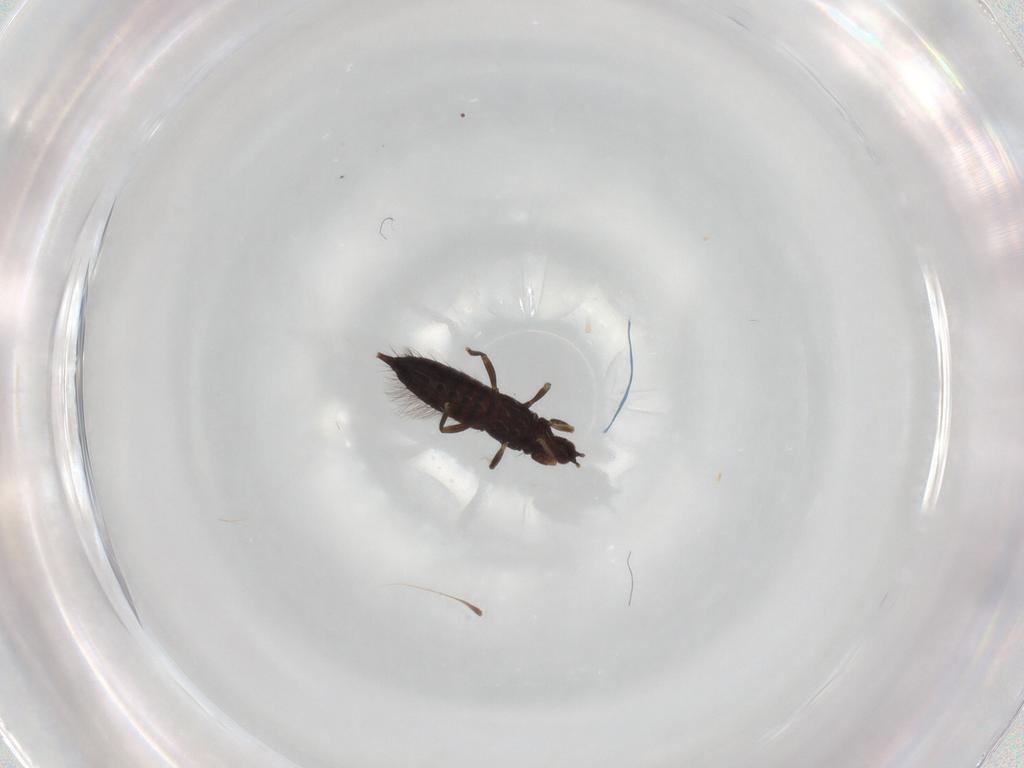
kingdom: Animalia
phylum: Arthropoda
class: Insecta
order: Thysanoptera
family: Phlaeothripidae
